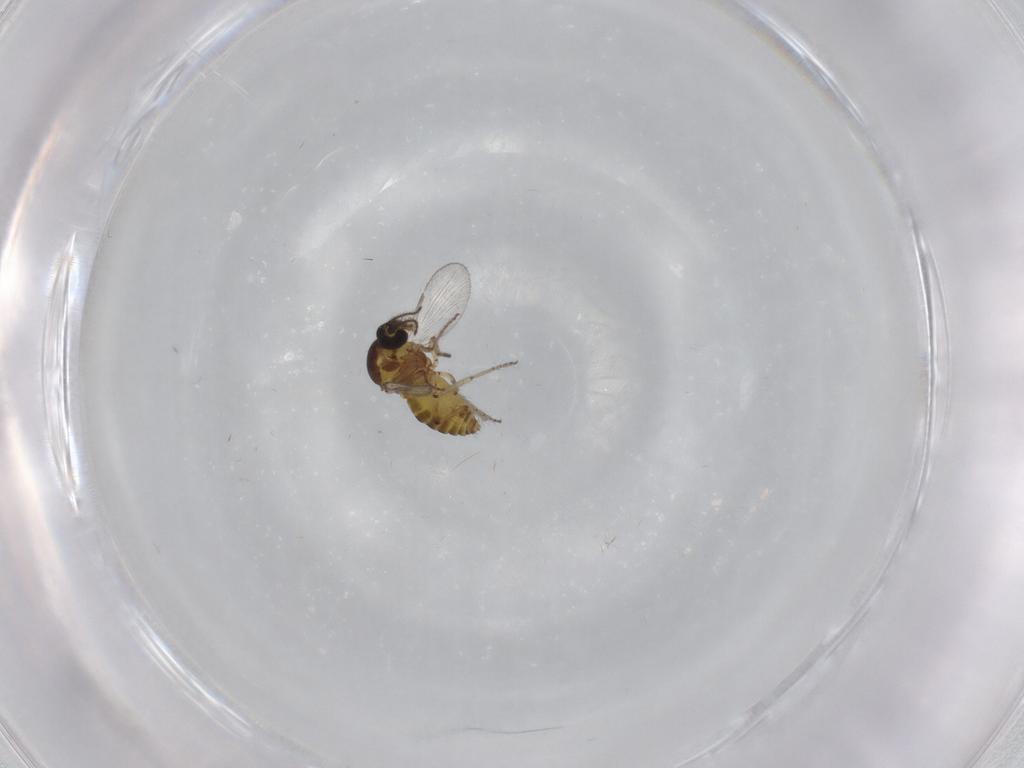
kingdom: Animalia
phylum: Arthropoda
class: Insecta
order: Diptera
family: Ceratopogonidae
